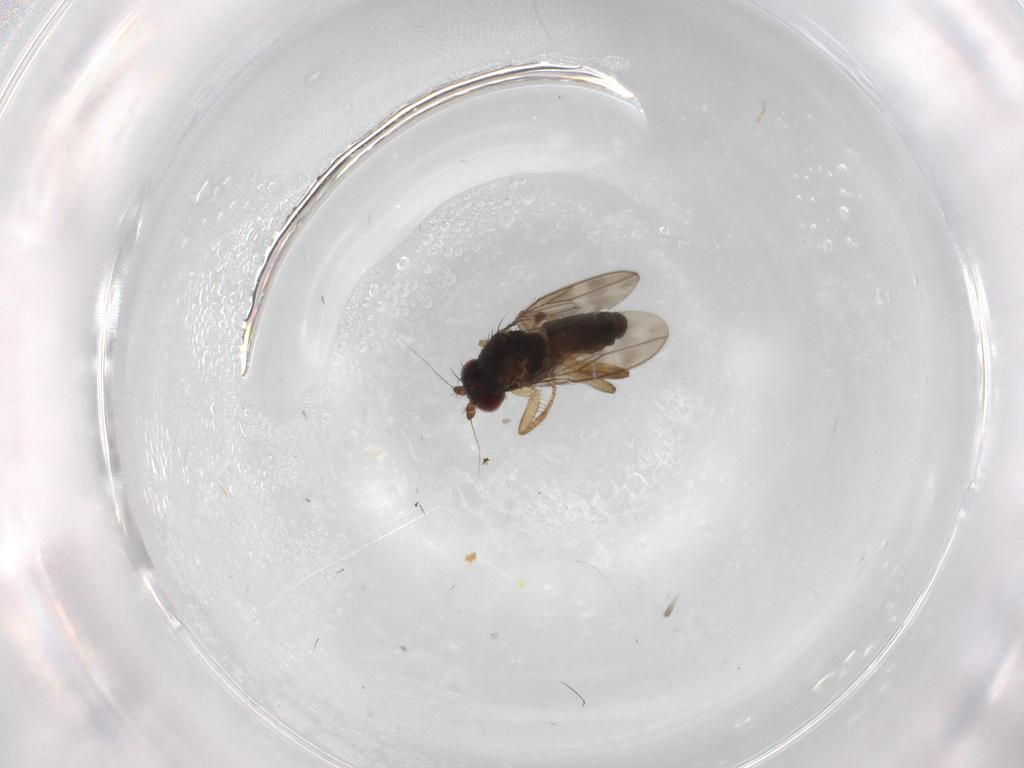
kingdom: Animalia
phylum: Arthropoda
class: Insecta
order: Diptera
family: Sphaeroceridae
